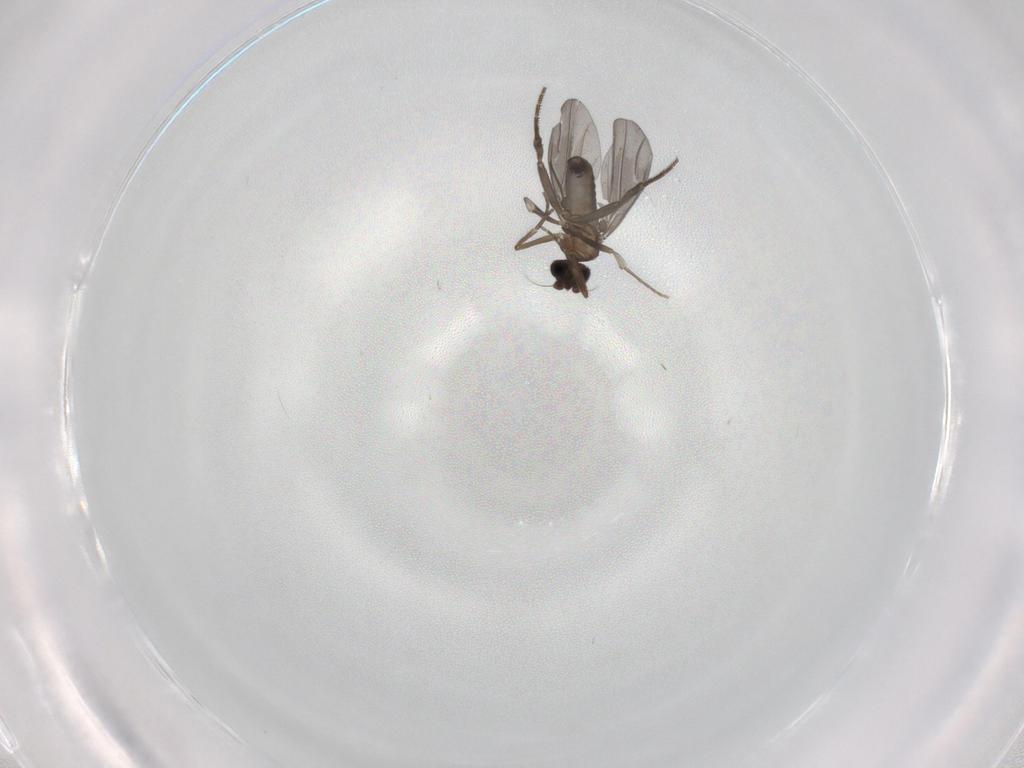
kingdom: Animalia
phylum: Arthropoda
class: Insecta
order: Diptera
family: Phoridae
